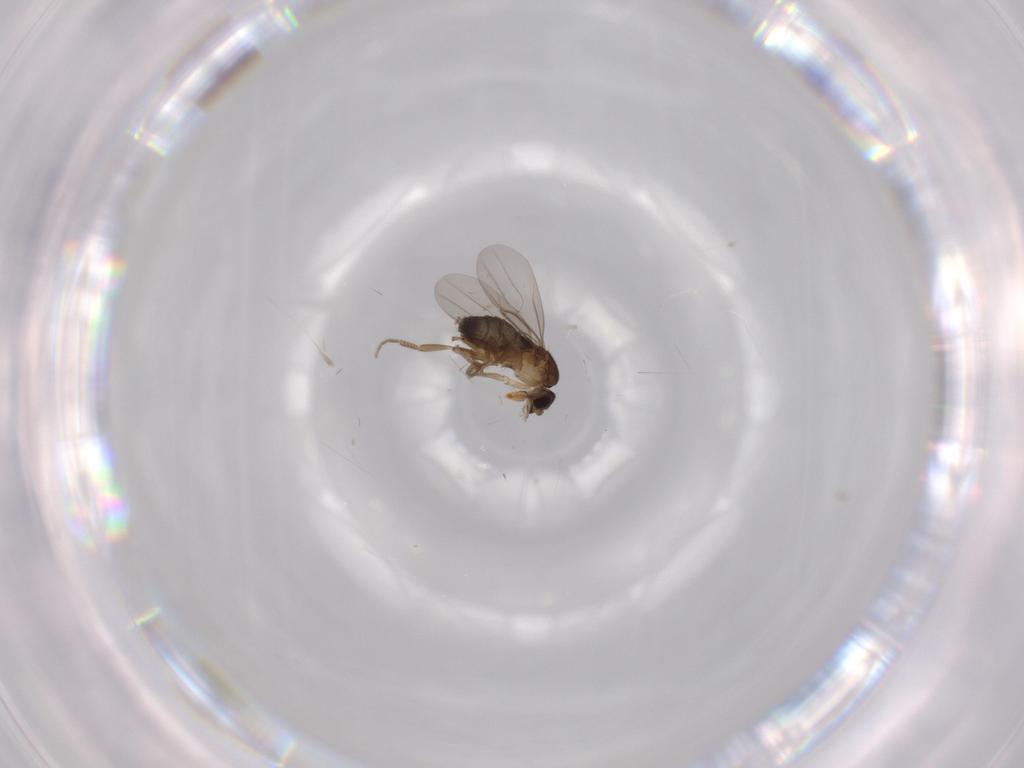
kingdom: Animalia
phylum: Arthropoda
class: Insecta
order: Diptera
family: Phoridae
